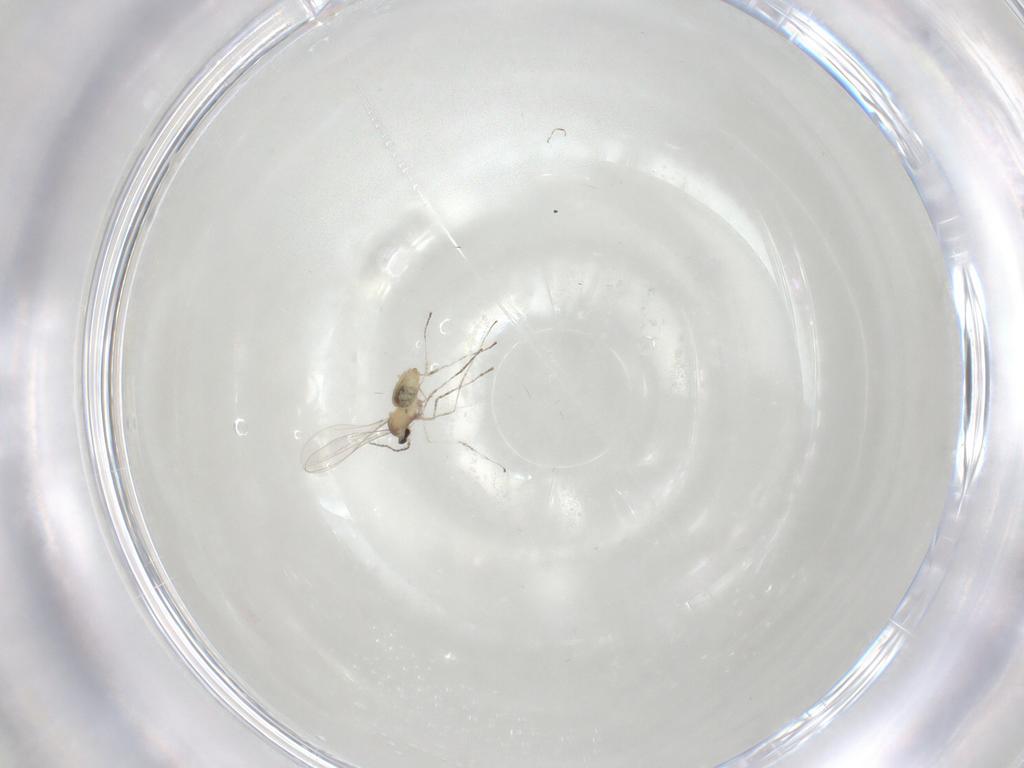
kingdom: Animalia
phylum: Arthropoda
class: Insecta
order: Diptera
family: Cecidomyiidae
